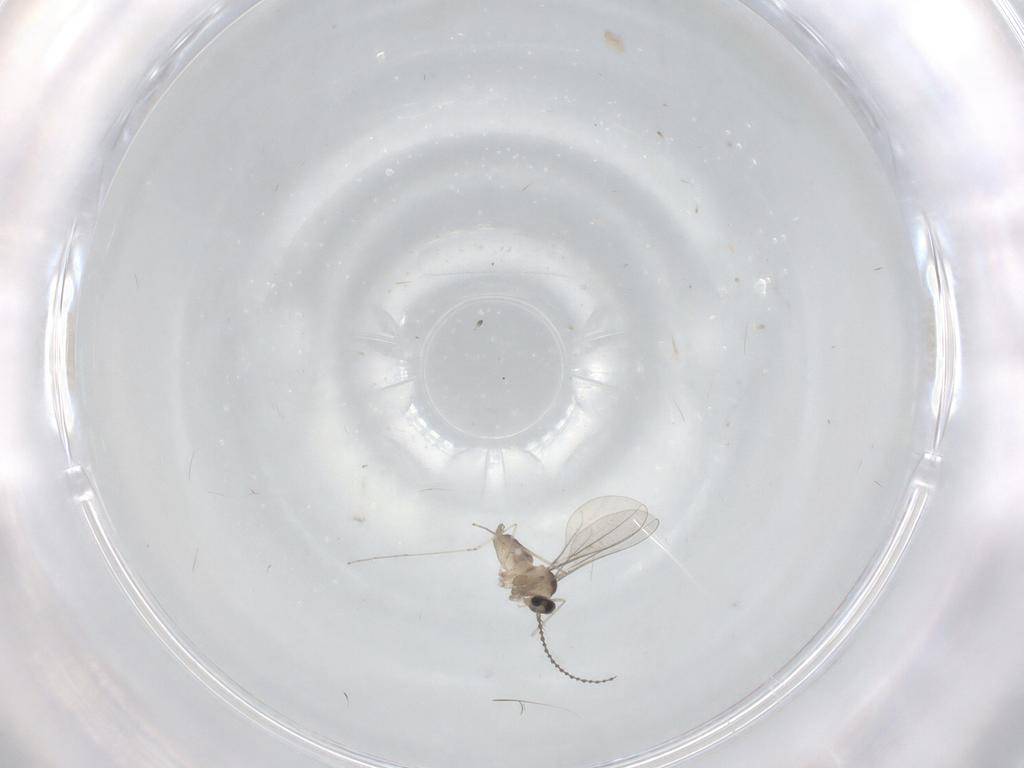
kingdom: Animalia
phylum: Arthropoda
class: Insecta
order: Diptera
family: Cecidomyiidae
